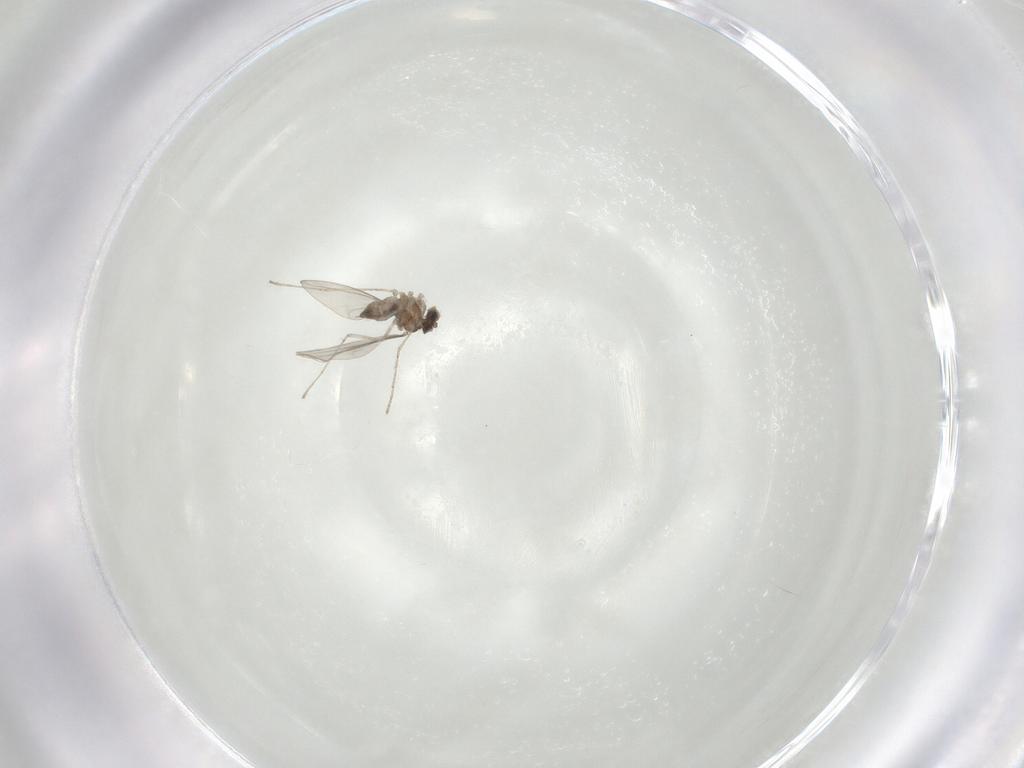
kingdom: Animalia
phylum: Arthropoda
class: Insecta
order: Diptera
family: Cecidomyiidae
